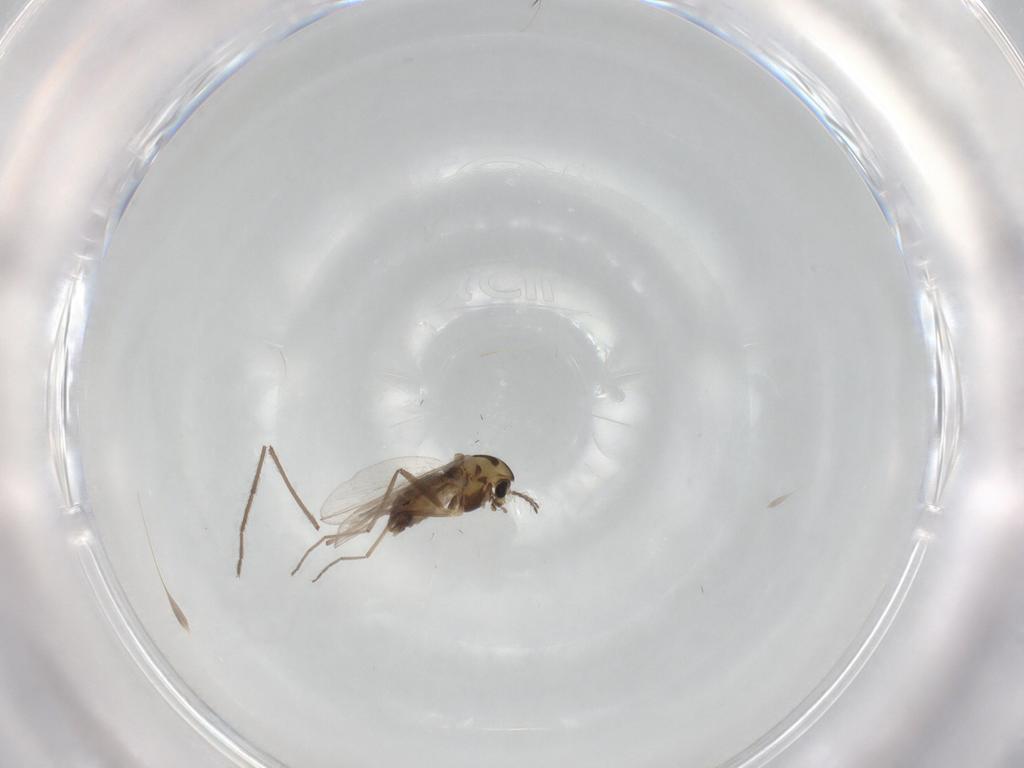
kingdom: Animalia
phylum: Arthropoda
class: Insecta
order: Diptera
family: Chironomidae
